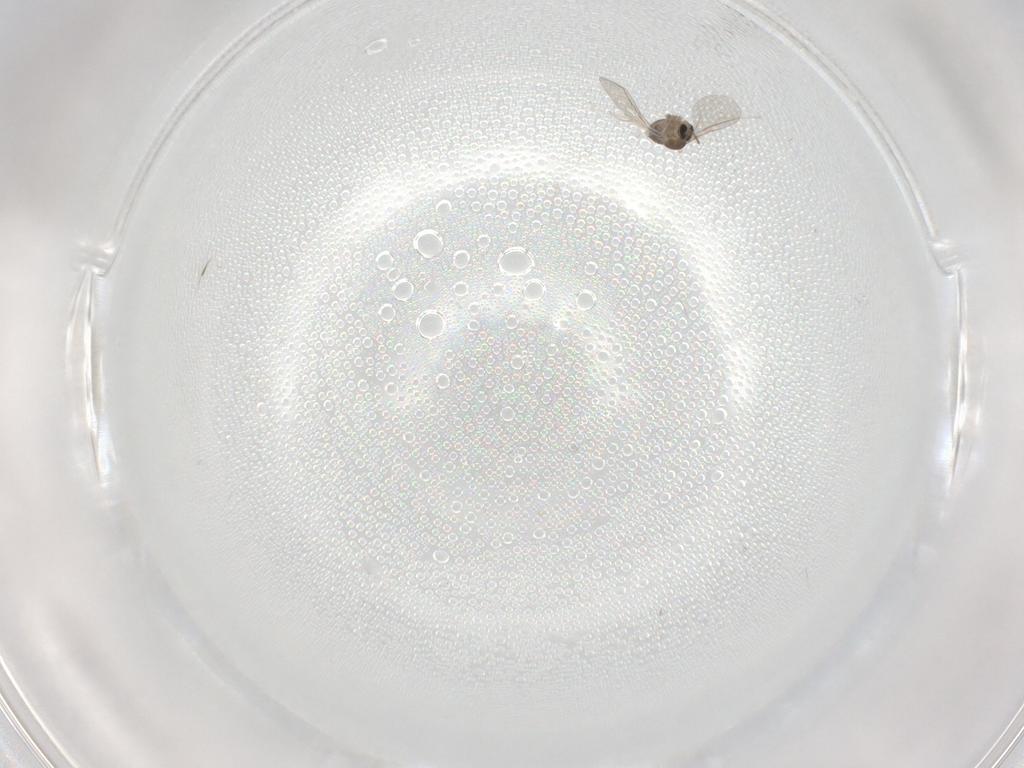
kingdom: Animalia
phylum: Arthropoda
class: Insecta
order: Diptera
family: Cecidomyiidae
